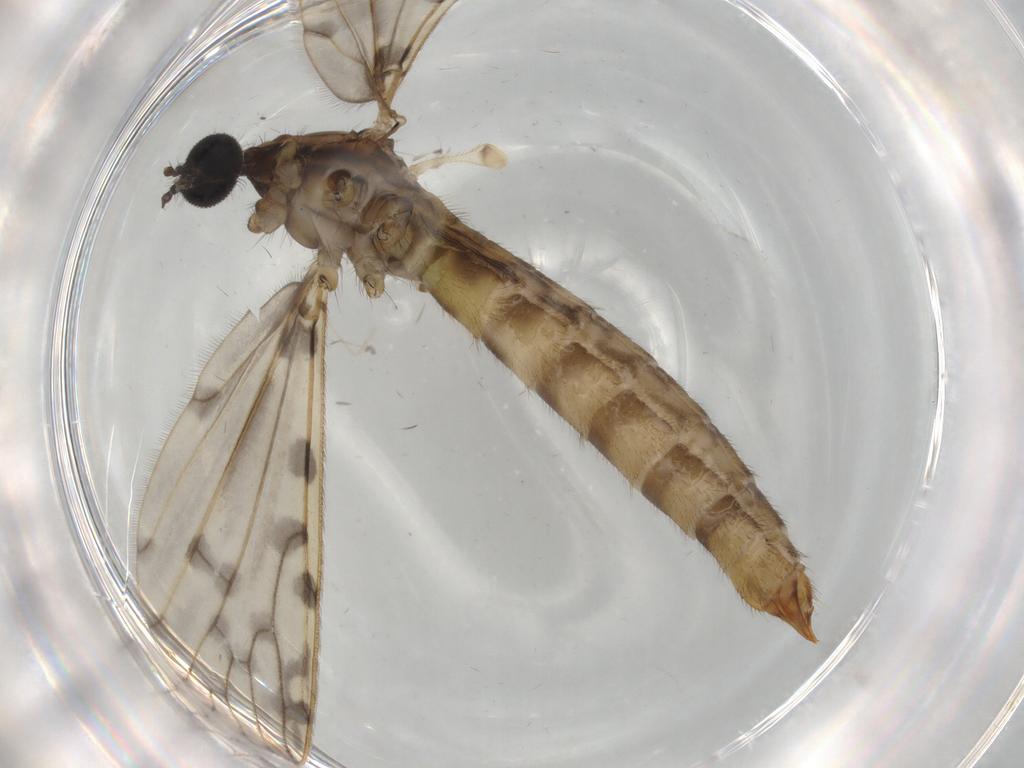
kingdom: Animalia
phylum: Arthropoda
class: Insecta
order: Diptera
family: Phoridae
